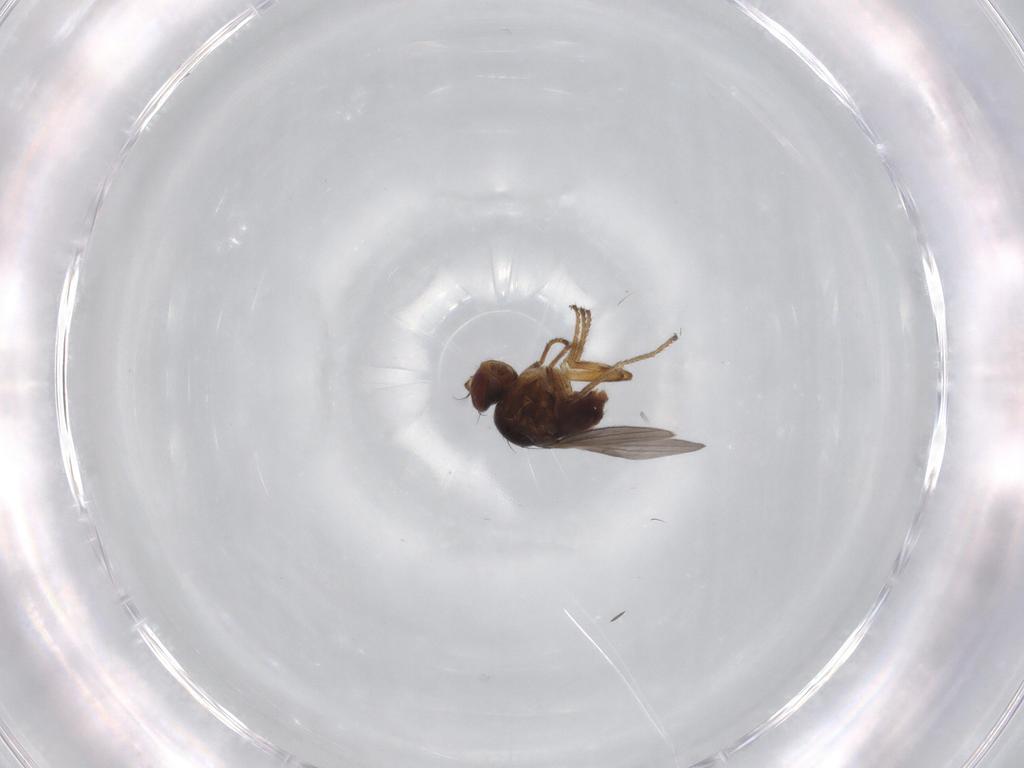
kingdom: Animalia
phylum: Arthropoda
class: Insecta
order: Diptera
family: Ephydridae
